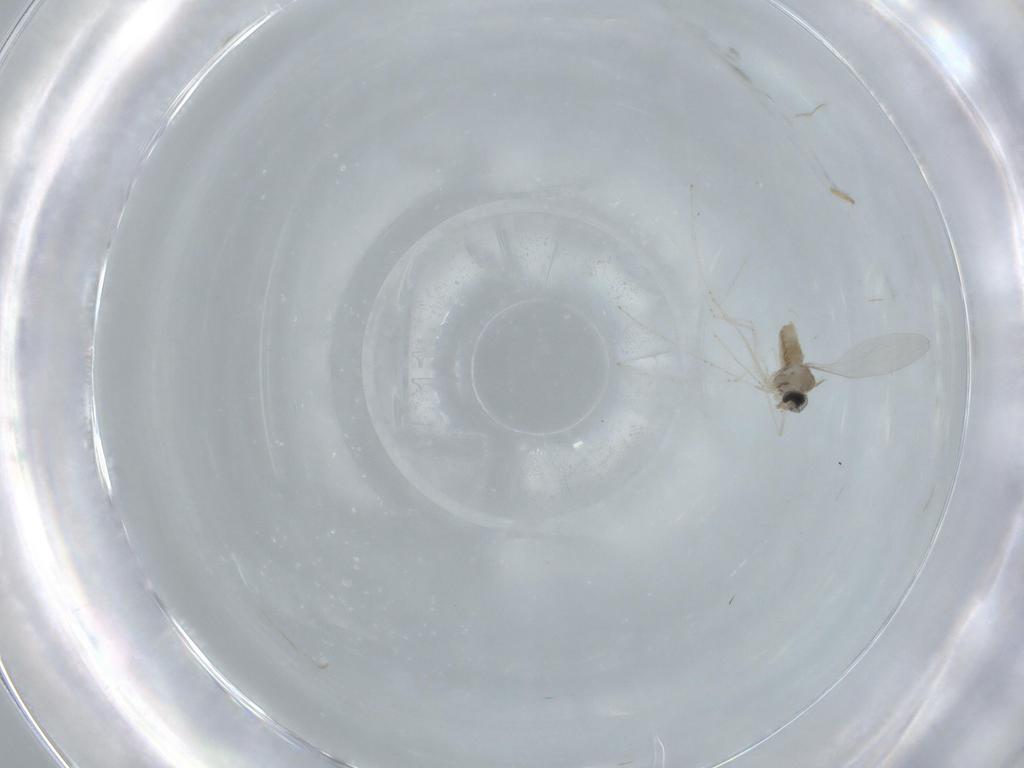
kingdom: Animalia
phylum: Arthropoda
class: Insecta
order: Diptera
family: Cecidomyiidae
